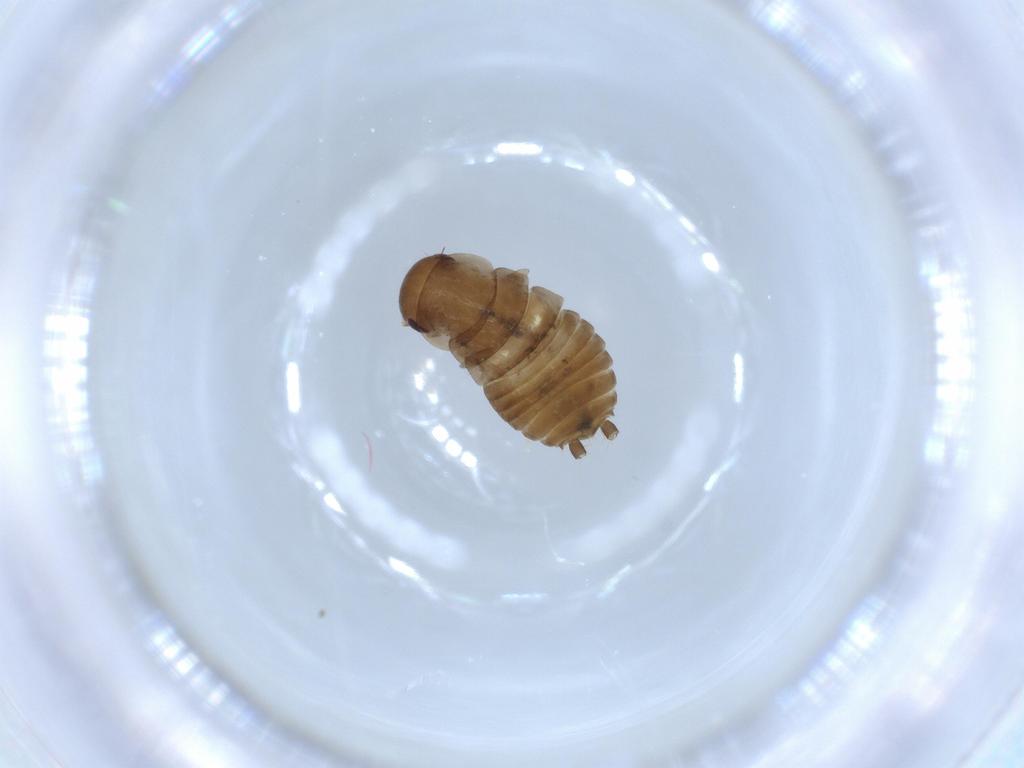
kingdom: Animalia
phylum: Arthropoda
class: Insecta
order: Blattodea
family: Ectobiidae
